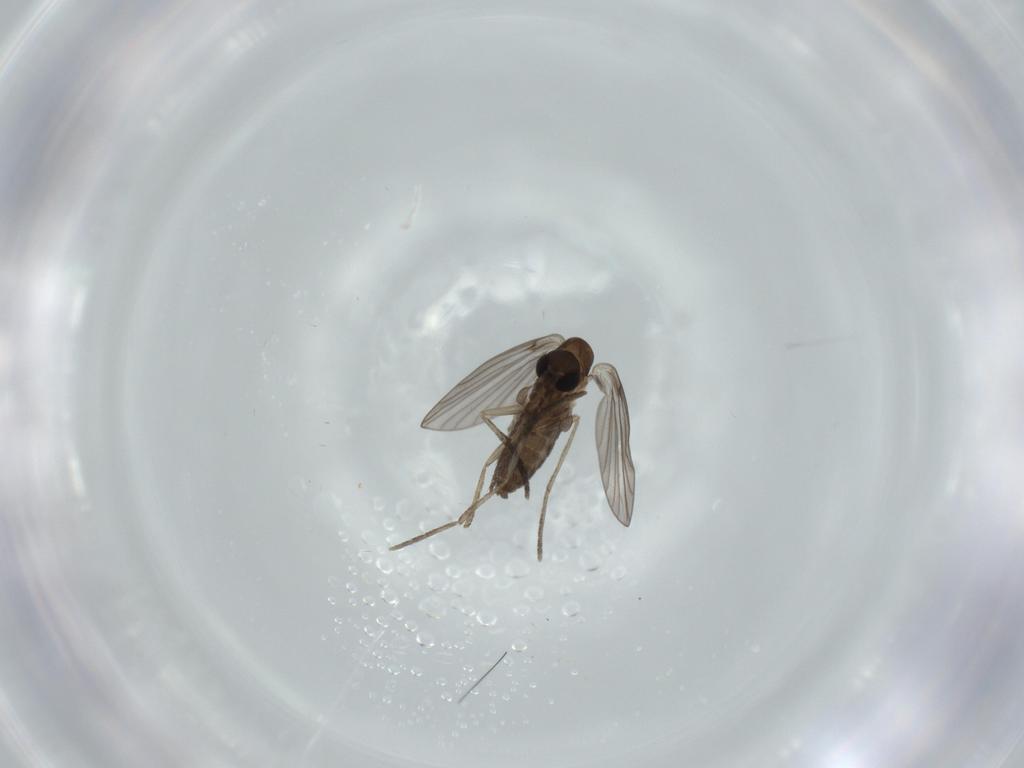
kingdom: Animalia
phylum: Arthropoda
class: Insecta
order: Diptera
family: Psychodidae
